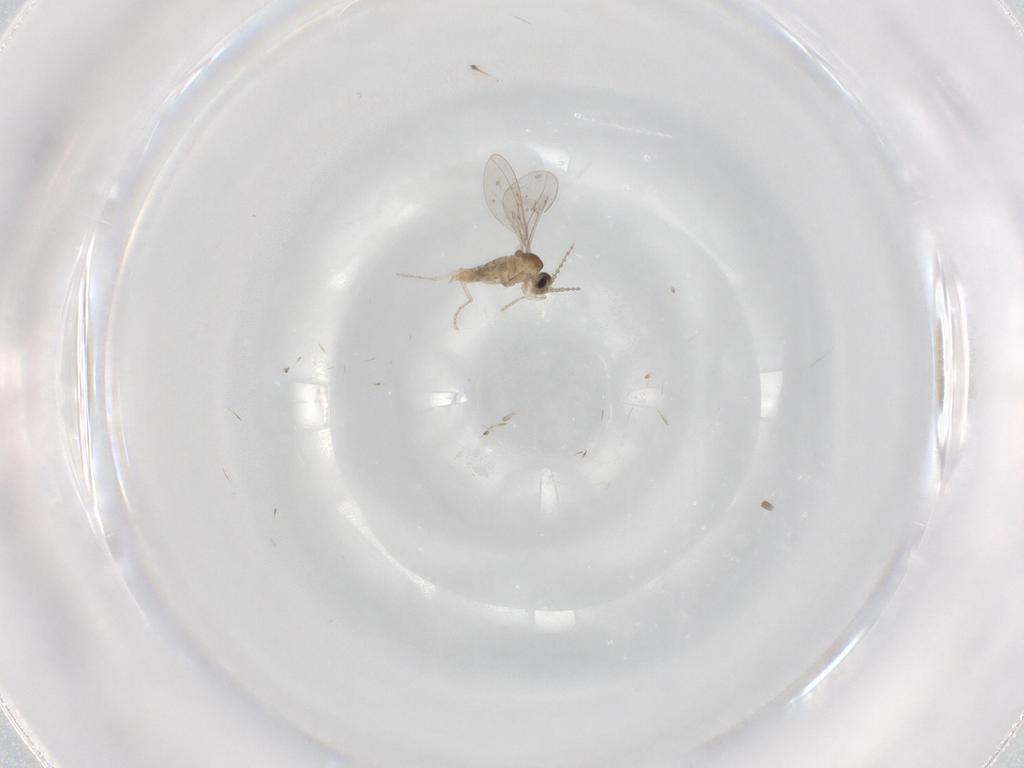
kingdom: Animalia
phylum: Arthropoda
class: Insecta
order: Diptera
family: Cecidomyiidae
